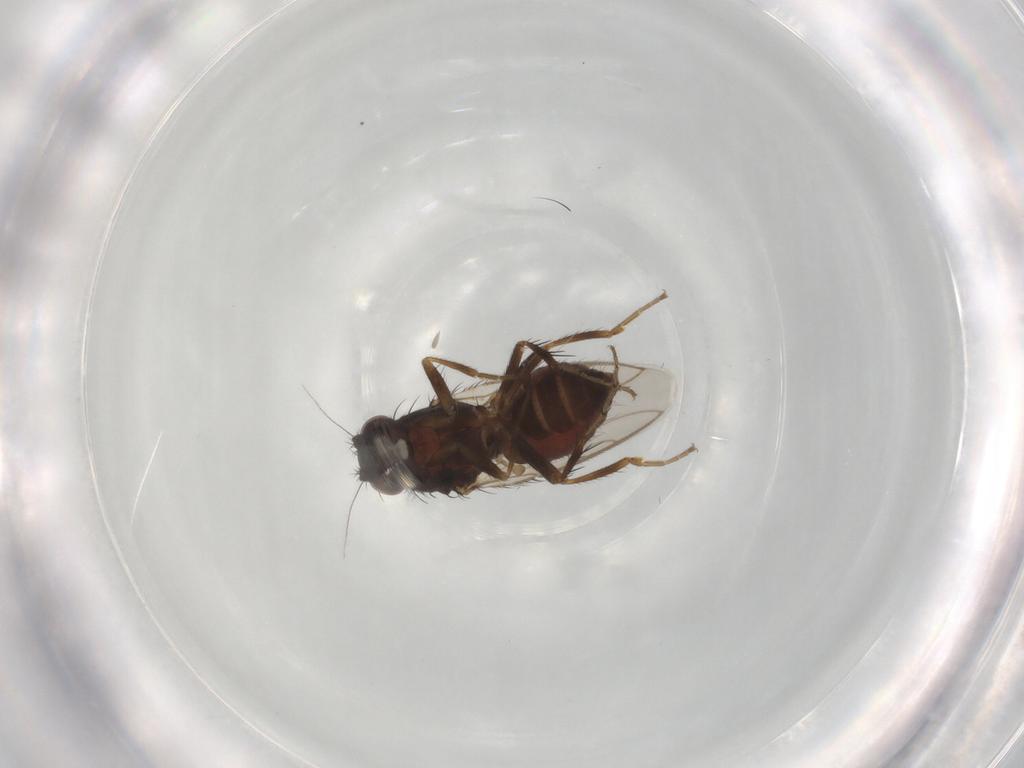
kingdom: Animalia
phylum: Arthropoda
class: Insecta
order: Diptera
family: Sphaeroceridae
